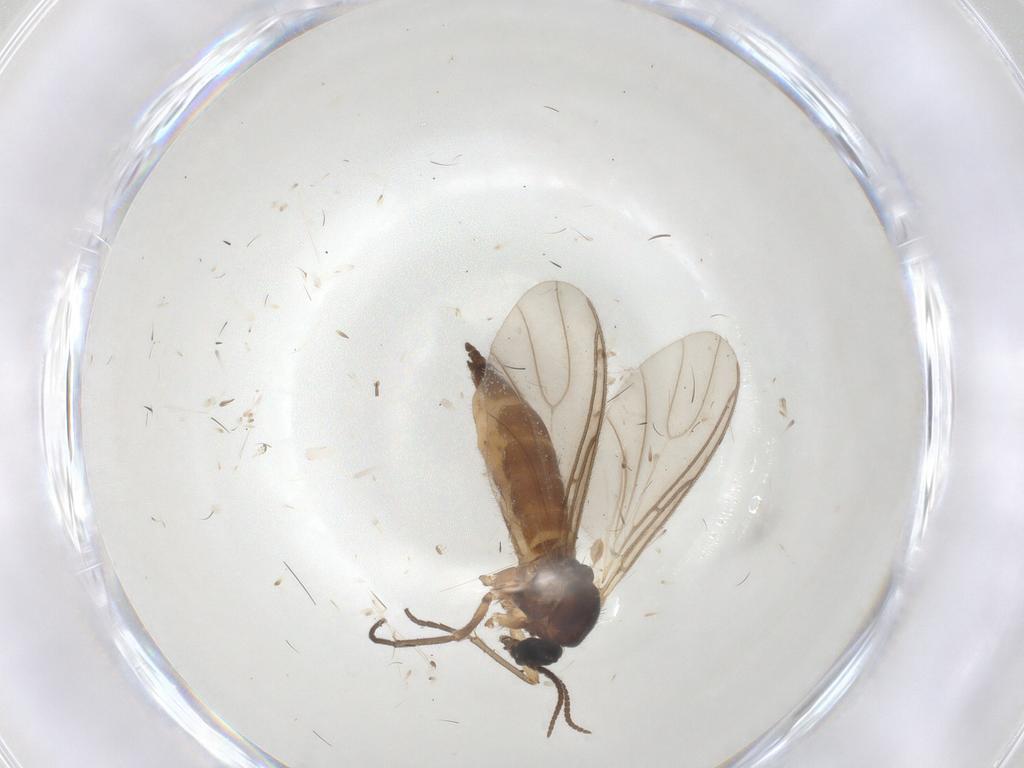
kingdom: Animalia
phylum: Arthropoda
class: Insecta
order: Diptera
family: Sciaridae
